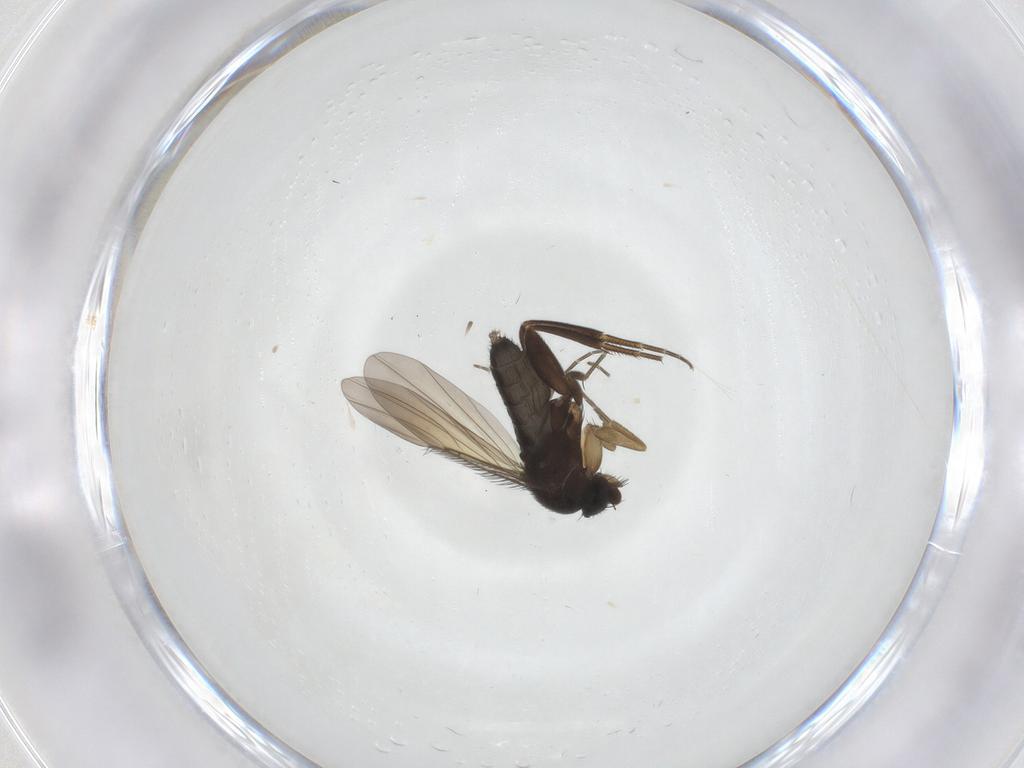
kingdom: Animalia
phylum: Arthropoda
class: Insecta
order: Diptera
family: Phoridae
